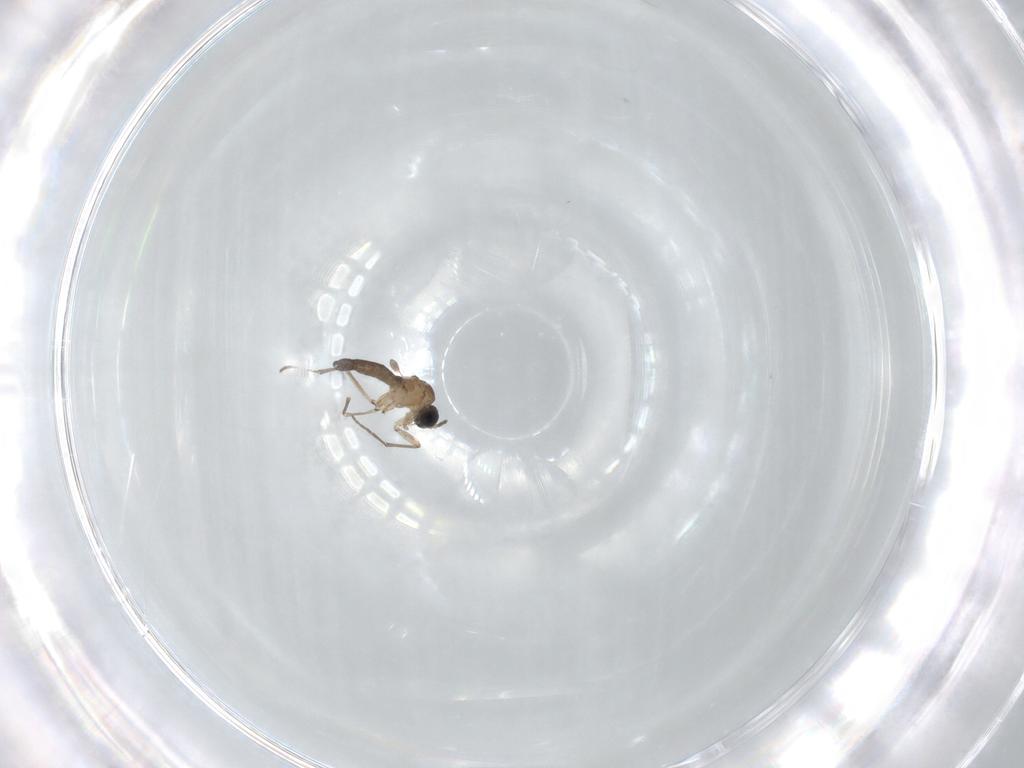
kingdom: Animalia
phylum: Arthropoda
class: Insecta
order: Diptera
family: Sciaridae
